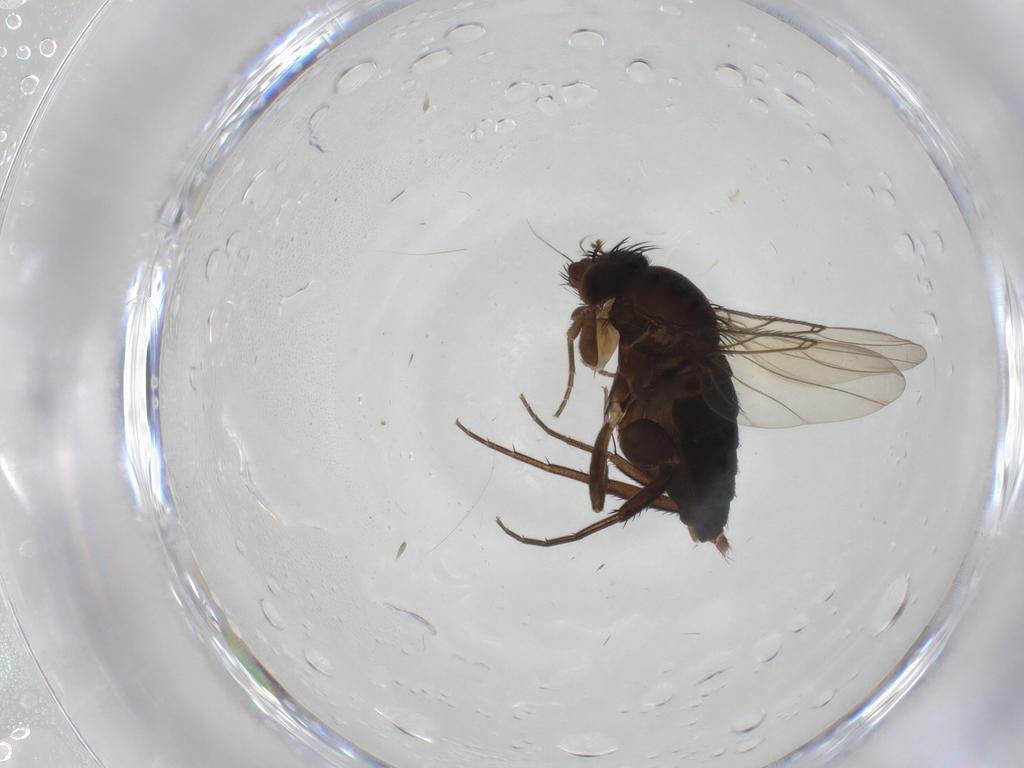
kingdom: Animalia
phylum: Arthropoda
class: Insecta
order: Diptera
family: Phoridae
